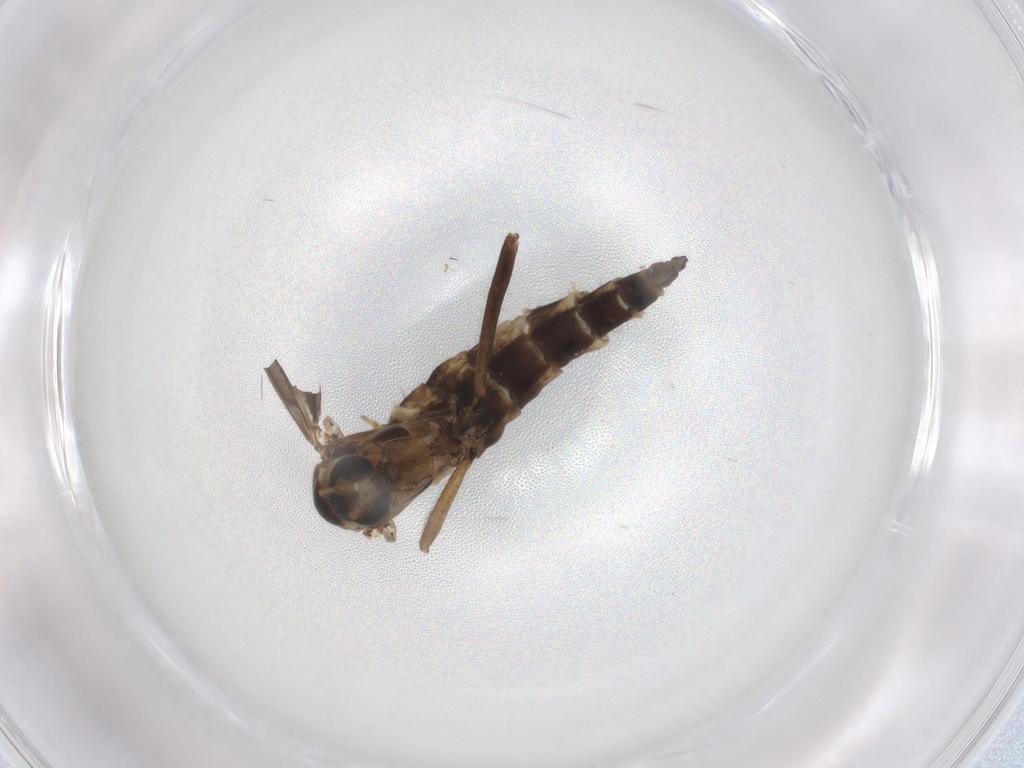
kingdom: Animalia
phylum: Arthropoda
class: Insecta
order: Diptera
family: Sciaridae
